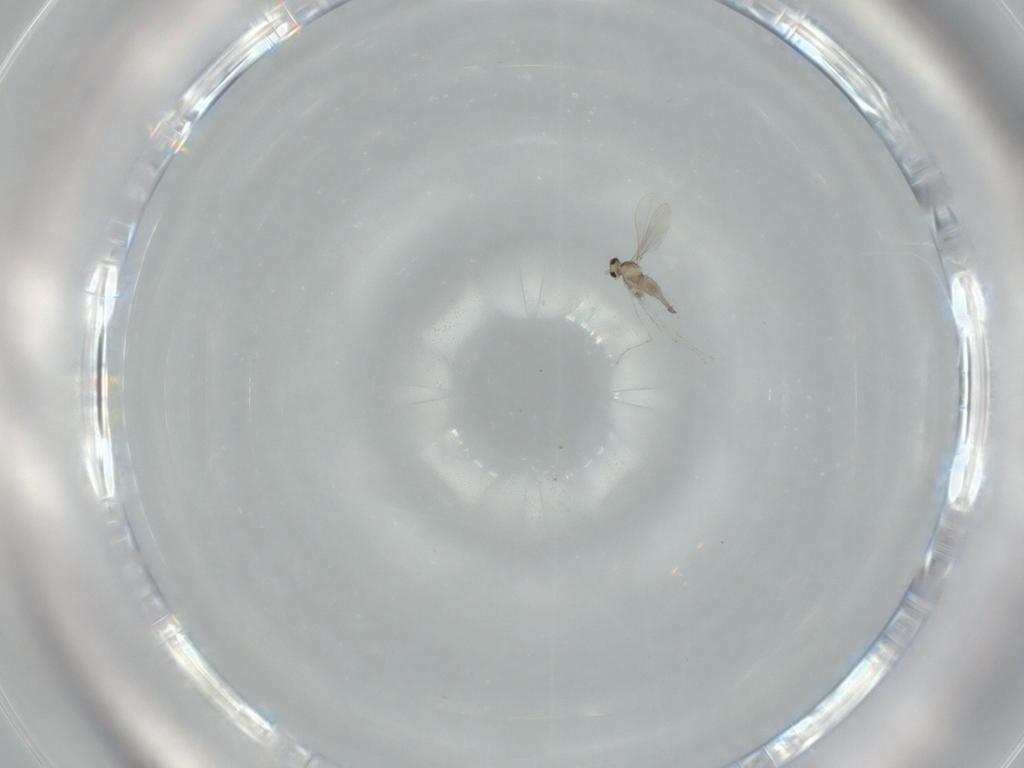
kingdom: Animalia
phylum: Arthropoda
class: Insecta
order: Diptera
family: Cecidomyiidae
